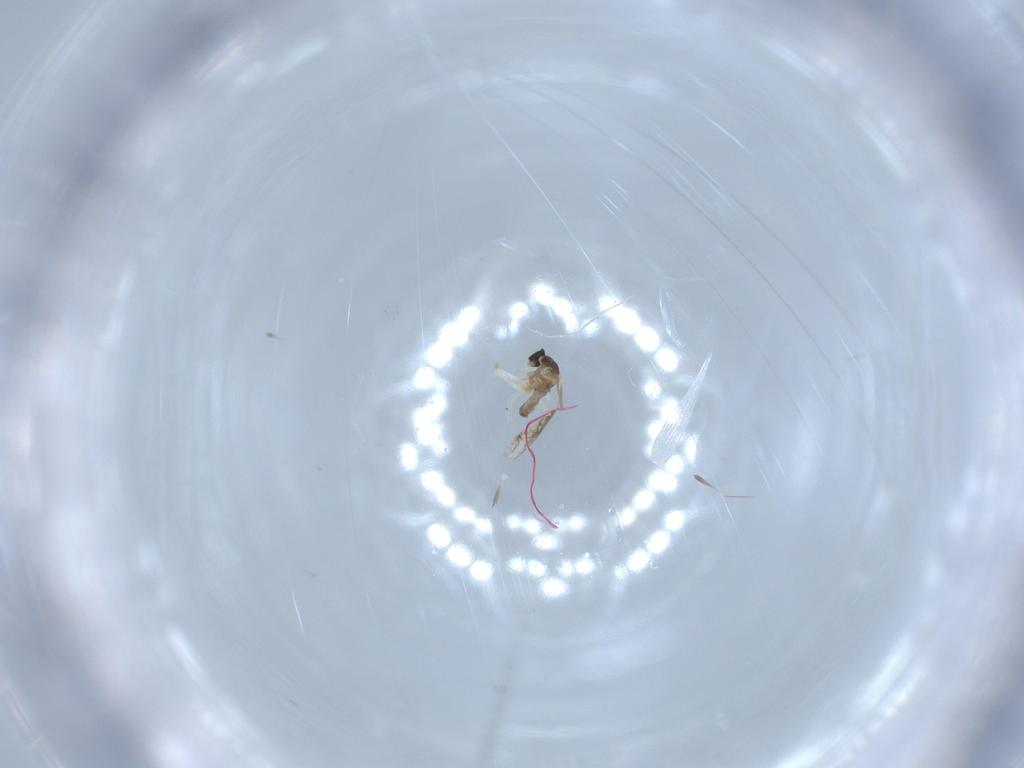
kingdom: Animalia
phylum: Arthropoda
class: Insecta
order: Diptera
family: Cecidomyiidae
